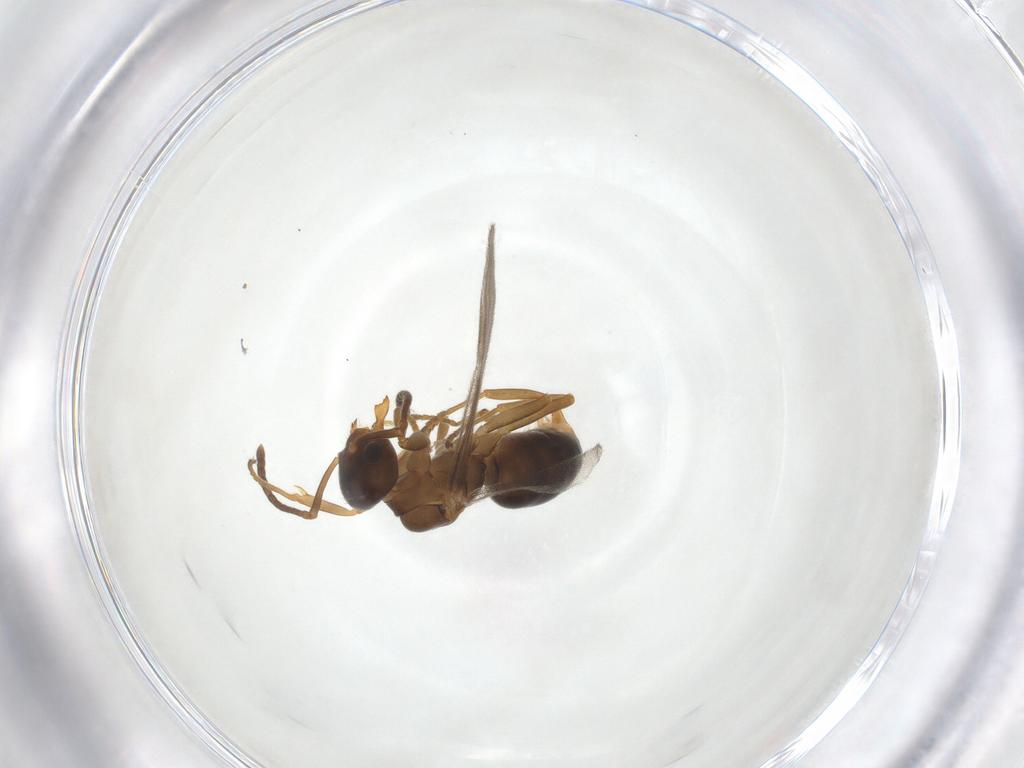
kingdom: Animalia
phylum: Arthropoda
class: Insecta
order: Hymenoptera
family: Formicidae
